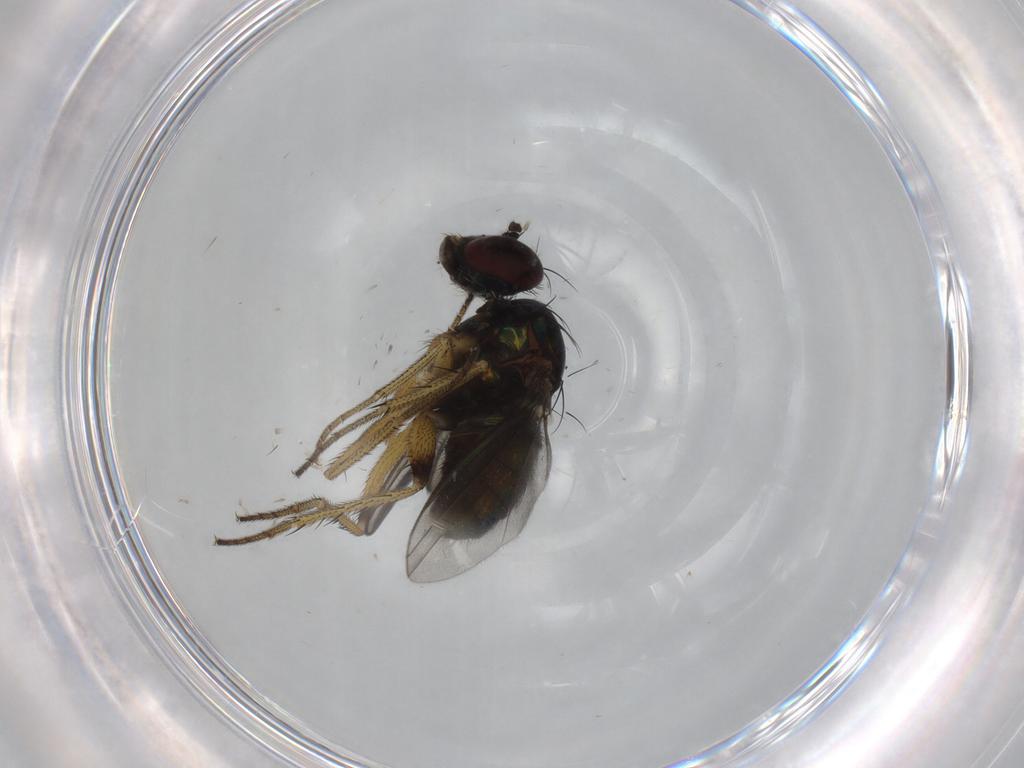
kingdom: Animalia
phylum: Arthropoda
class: Insecta
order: Diptera
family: Dolichopodidae
